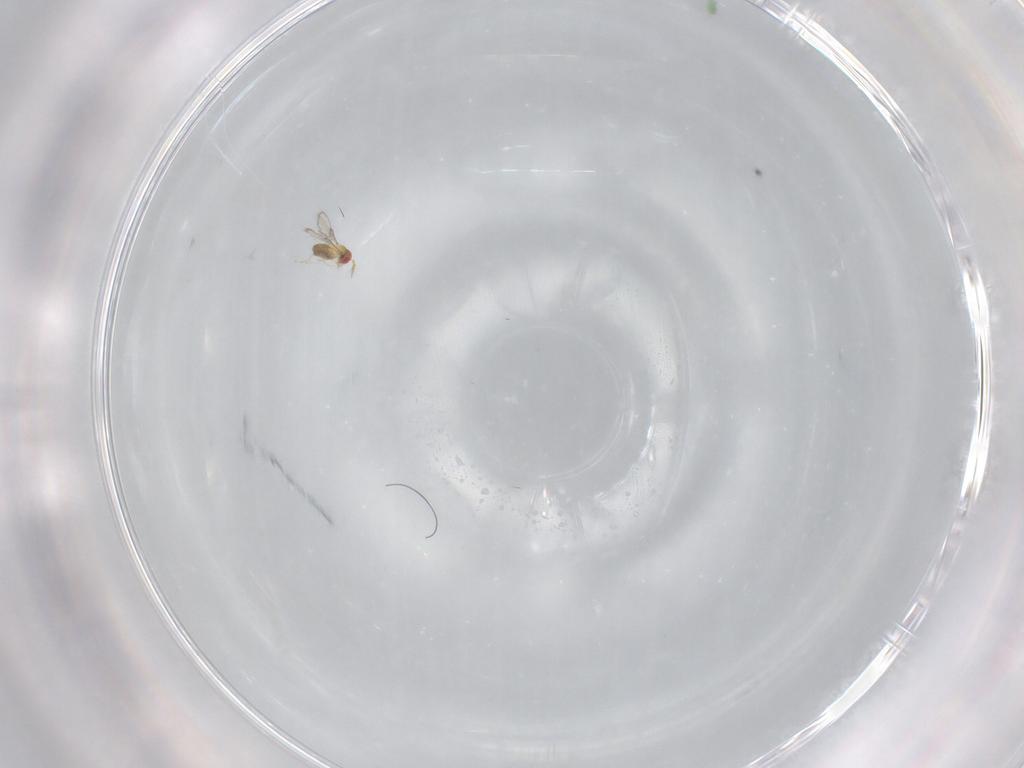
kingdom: Animalia
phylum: Arthropoda
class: Insecta
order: Hymenoptera
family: Trichogrammatidae
